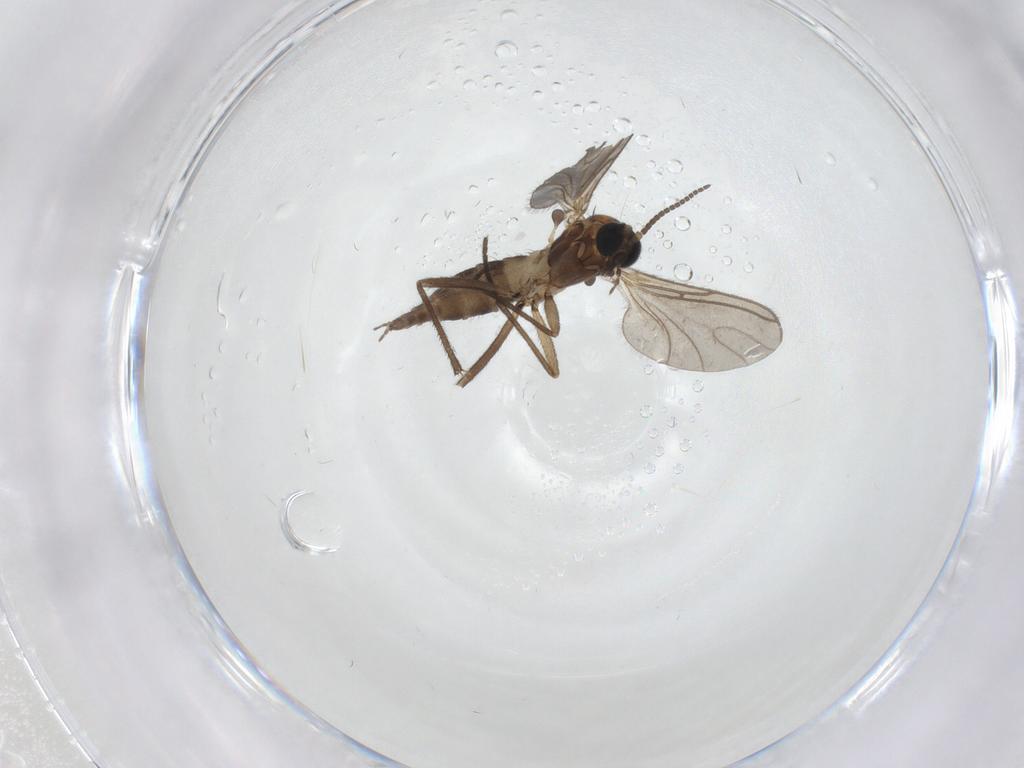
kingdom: Animalia
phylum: Arthropoda
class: Insecta
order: Diptera
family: Sciaridae
